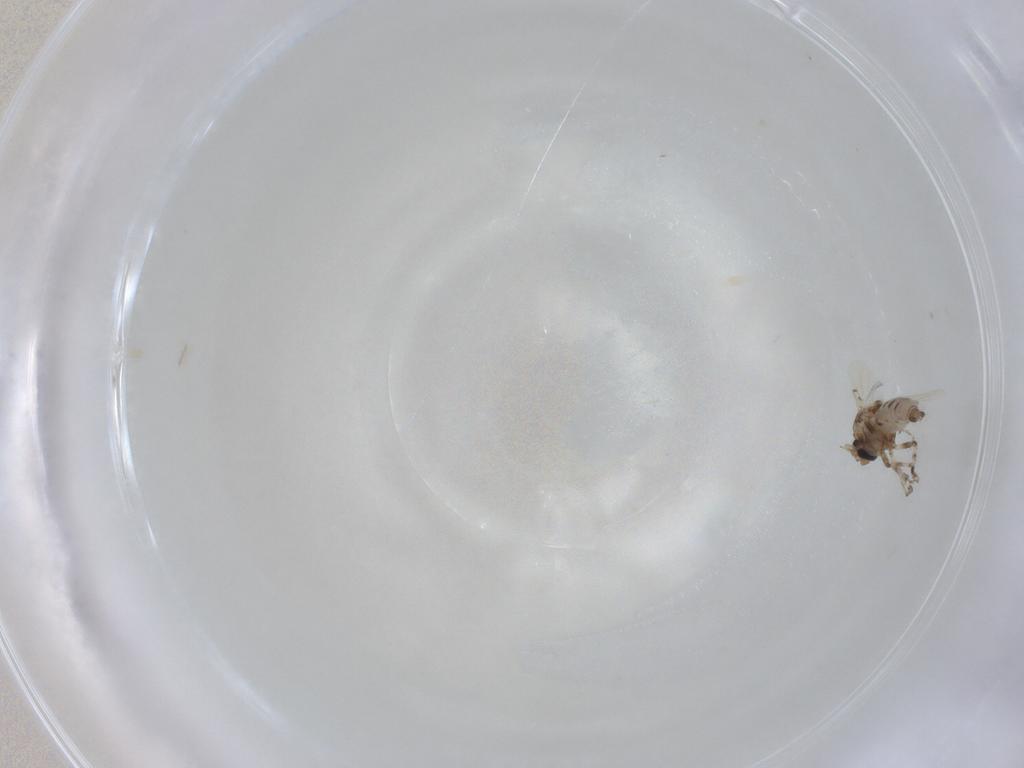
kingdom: Animalia
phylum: Arthropoda
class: Insecta
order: Diptera
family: Ceratopogonidae
